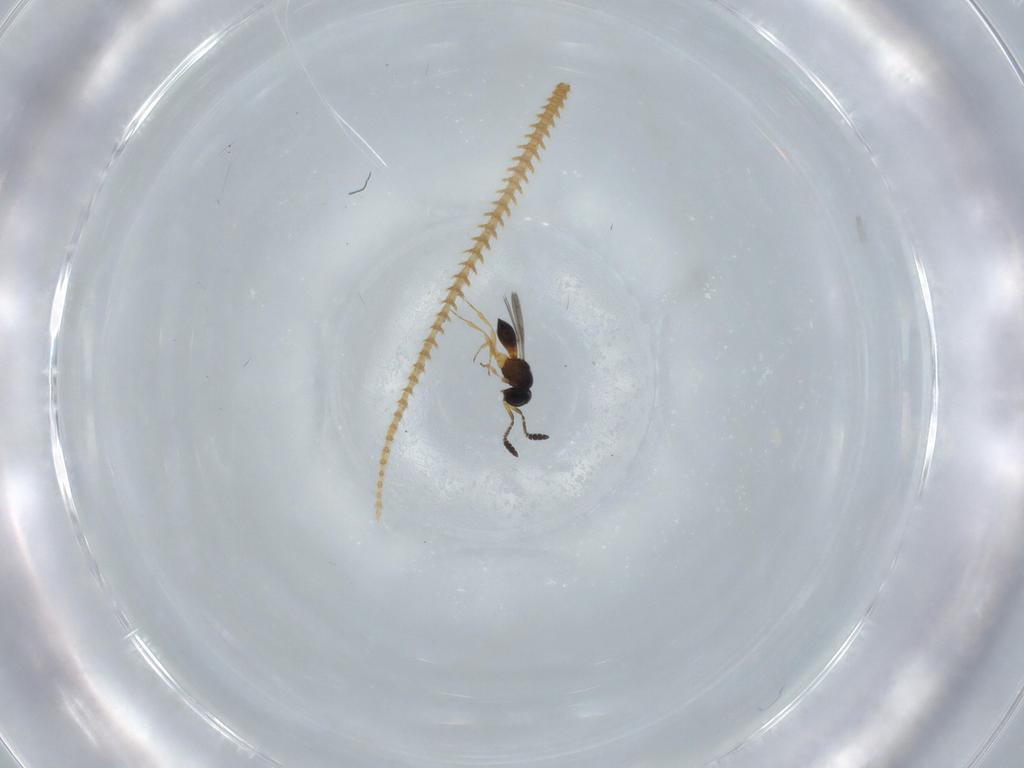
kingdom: Animalia
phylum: Arthropoda
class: Insecta
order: Hymenoptera
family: Scelionidae
